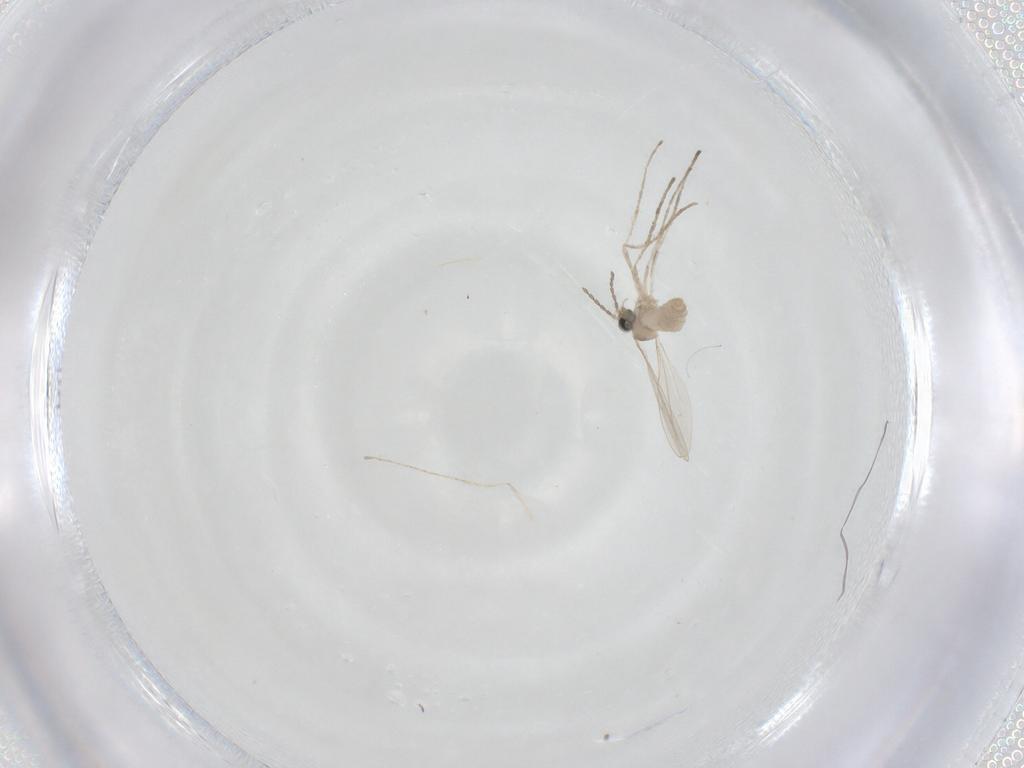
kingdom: Animalia
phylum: Arthropoda
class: Insecta
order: Diptera
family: Cecidomyiidae
